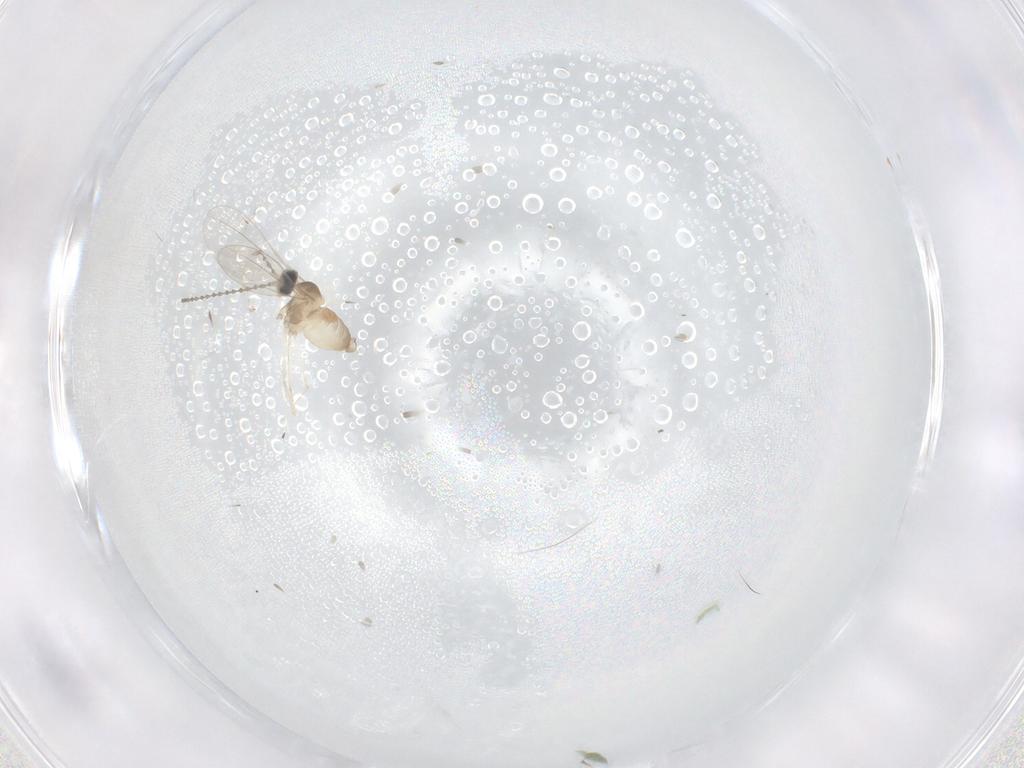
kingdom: Animalia
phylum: Arthropoda
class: Insecta
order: Diptera
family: Cecidomyiidae
